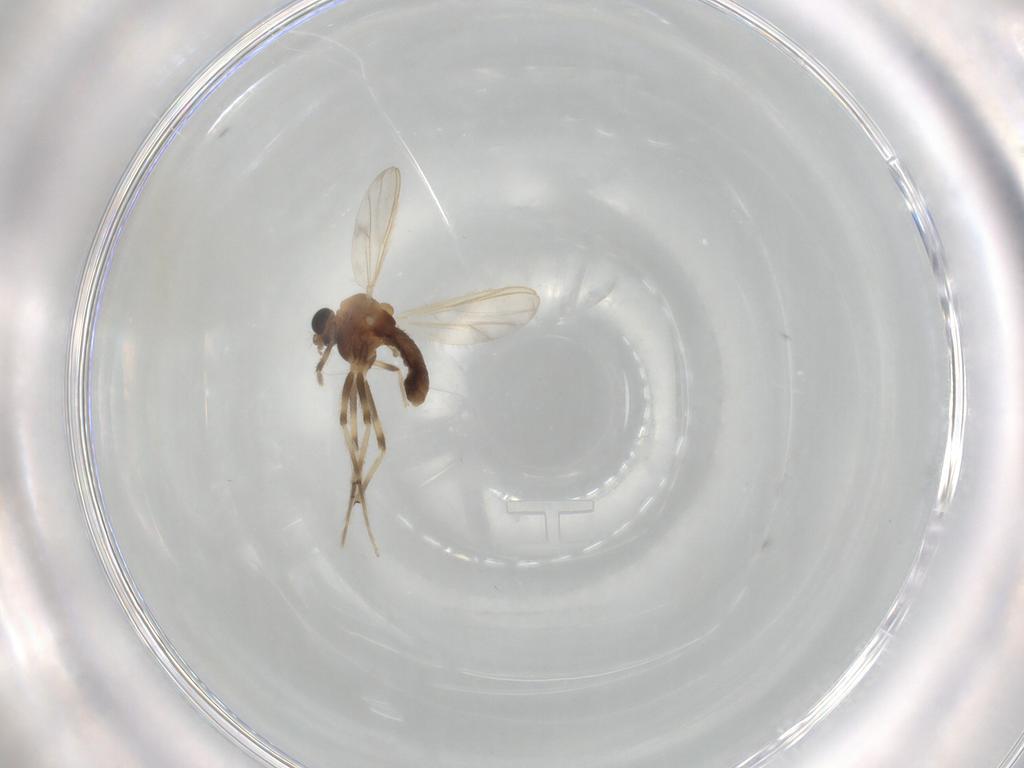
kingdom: Animalia
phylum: Arthropoda
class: Insecta
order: Diptera
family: Chironomidae
